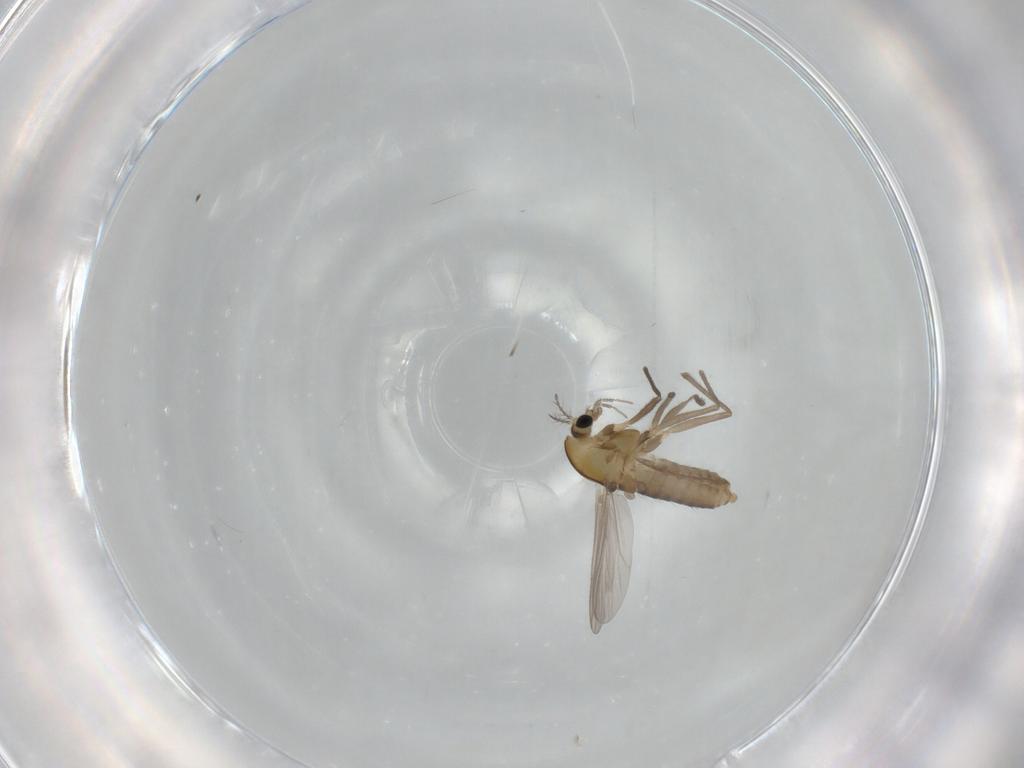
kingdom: Animalia
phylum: Arthropoda
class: Insecta
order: Diptera
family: Chironomidae
